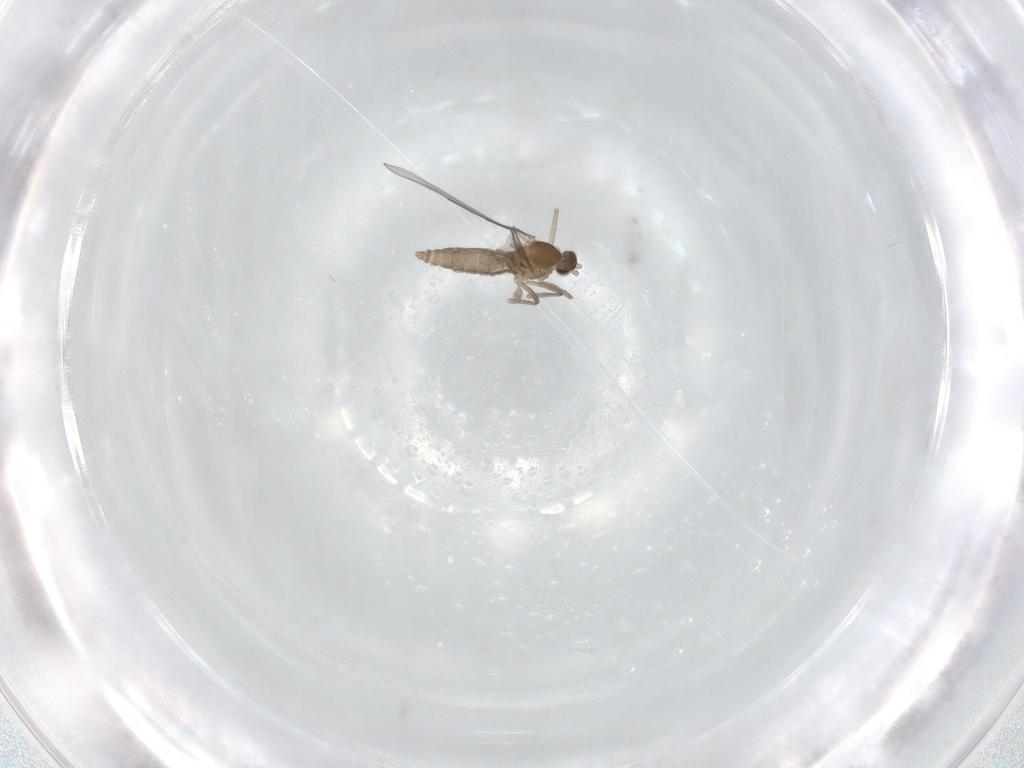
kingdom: Animalia
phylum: Arthropoda
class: Insecta
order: Diptera
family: Cecidomyiidae
